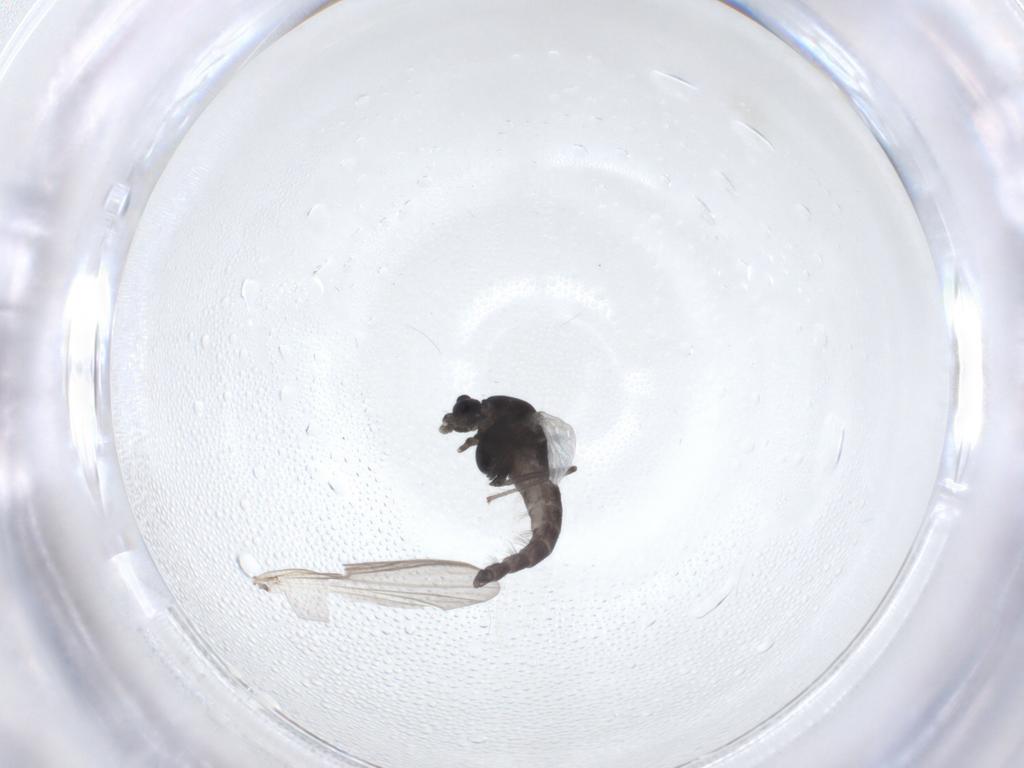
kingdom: Animalia
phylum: Arthropoda
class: Insecta
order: Diptera
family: Chironomidae
